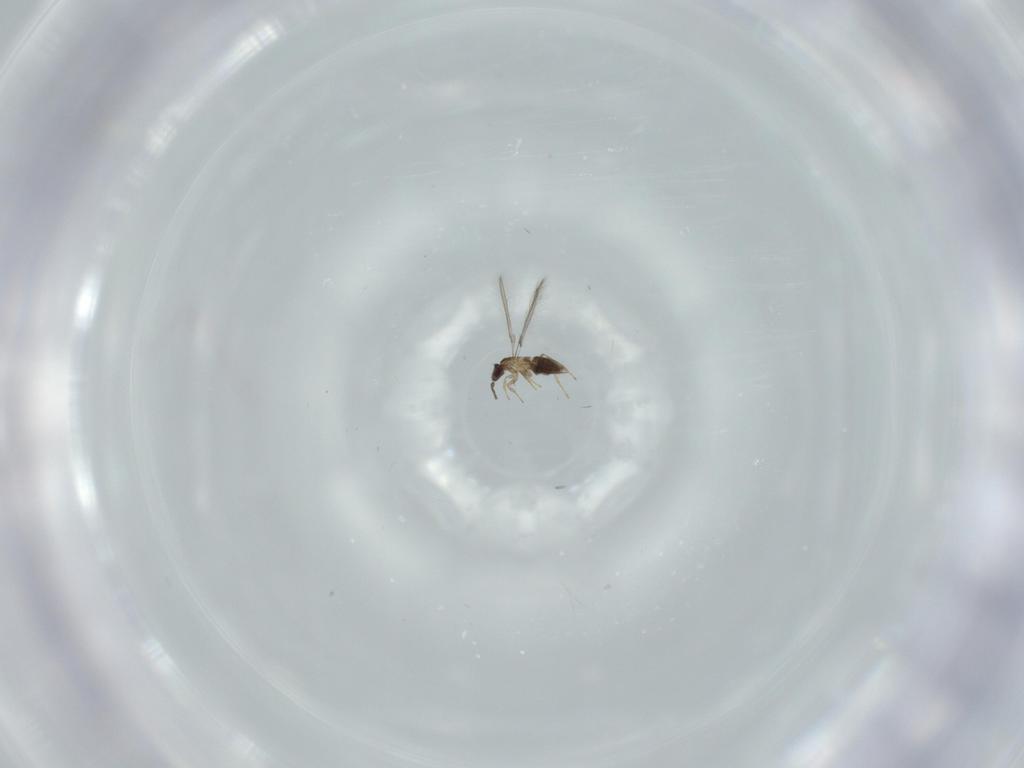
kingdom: Animalia
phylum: Arthropoda
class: Insecta
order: Hymenoptera
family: Mymaridae
